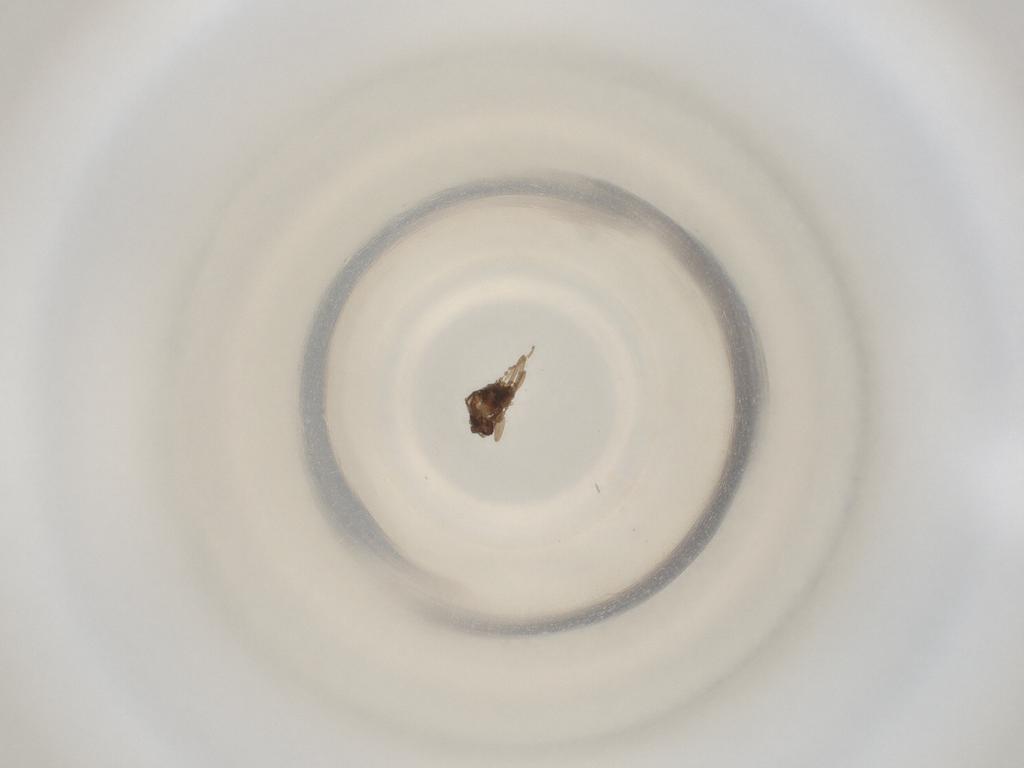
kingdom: Animalia
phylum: Arthropoda
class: Insecta
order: Diptera
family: Cecidomyiidae
